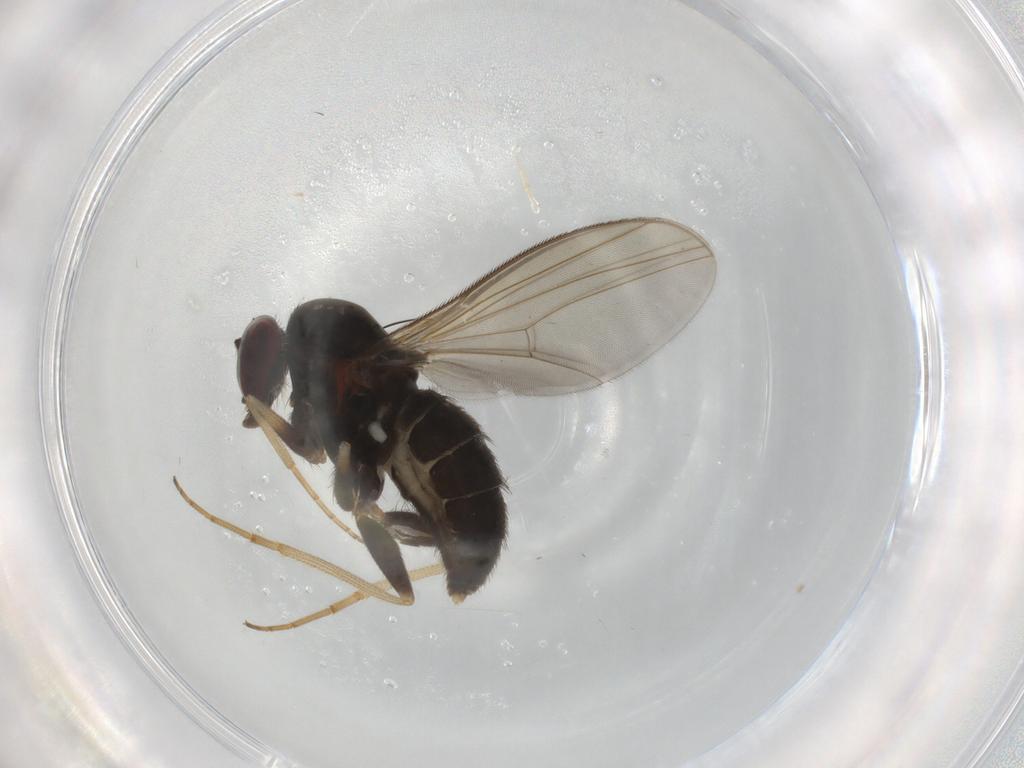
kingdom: Animalia
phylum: Arthropoda
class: Insecta
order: Diptera
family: Dolichopodidae
